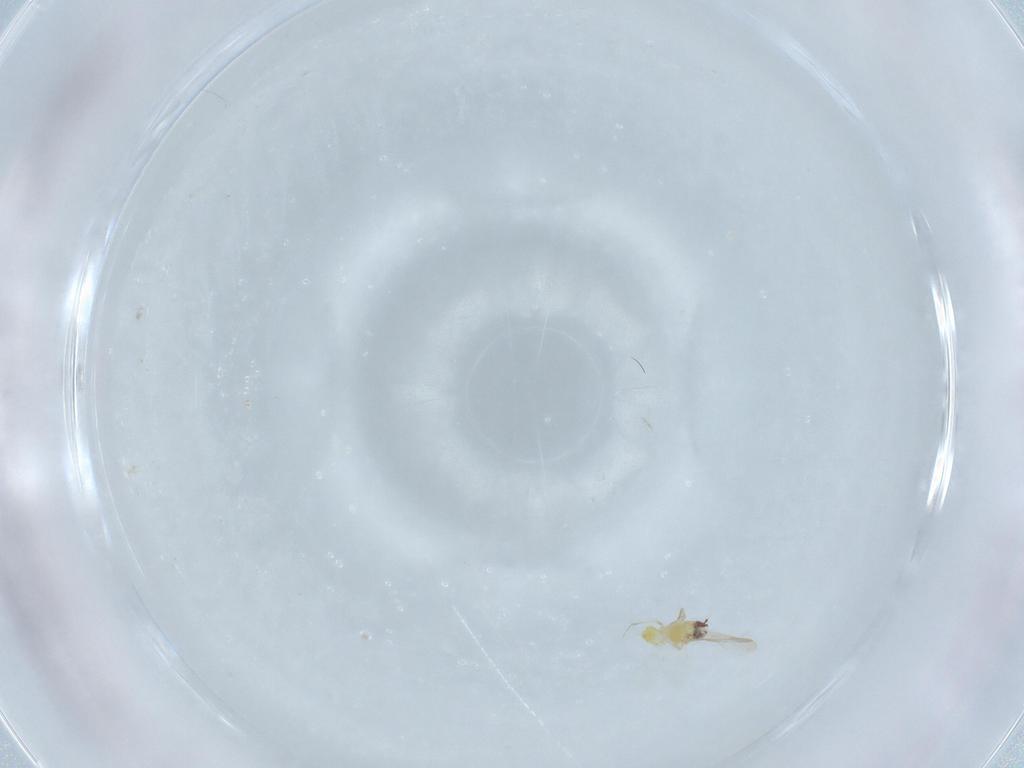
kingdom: Animalia
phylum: Arthropoda
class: Insecta
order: Hemiptera
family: Aleyrodidae
